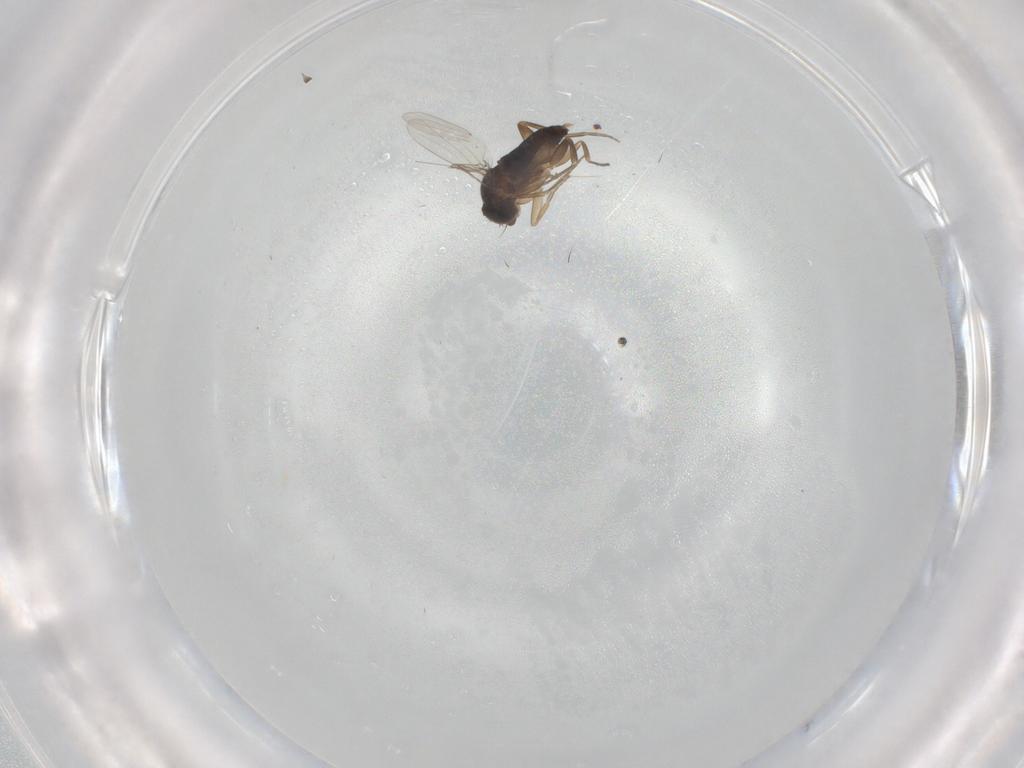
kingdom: Animalia
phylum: Arthropoda
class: Insecta
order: Diptera
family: Phoridae
